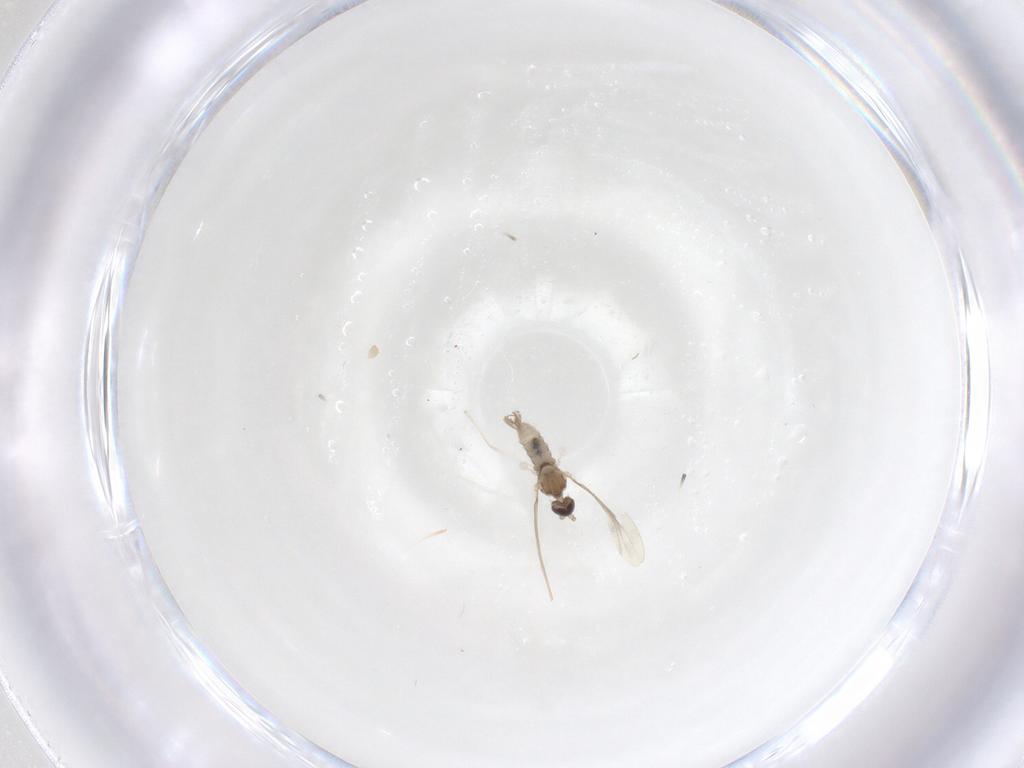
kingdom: Animalia
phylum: Arthropoda
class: Insecta
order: Diptera
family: Cecidomyiidae
